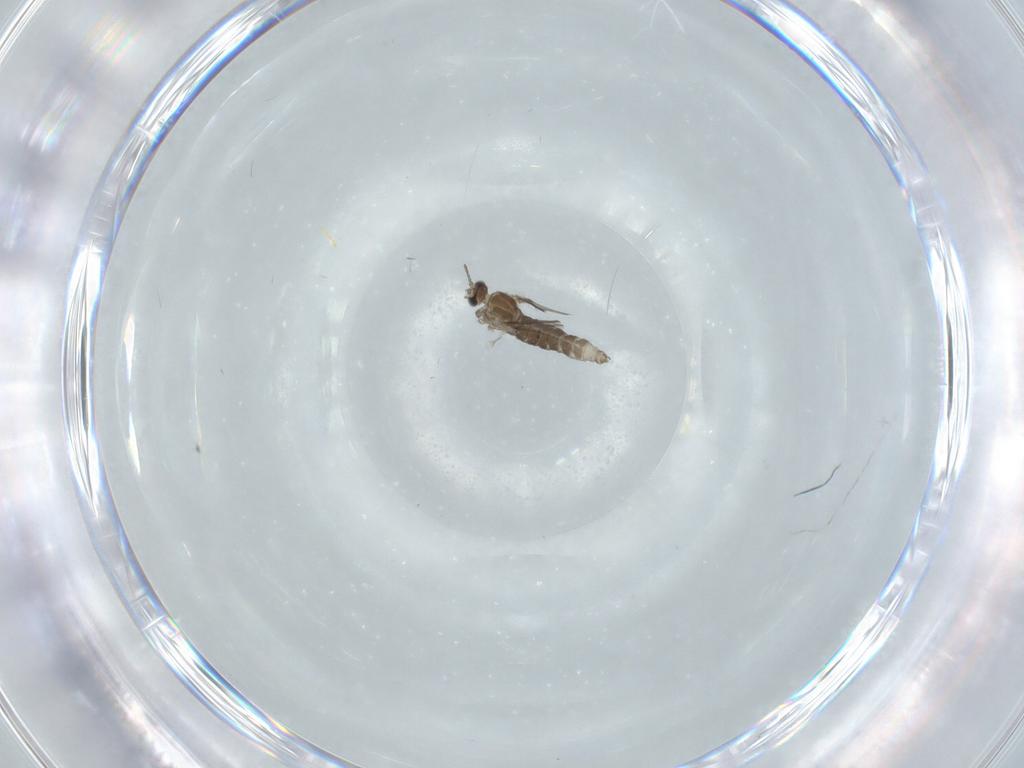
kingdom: Animalia
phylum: Arthropoda
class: Insecta
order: Diptera
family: Cecidomyiidae
